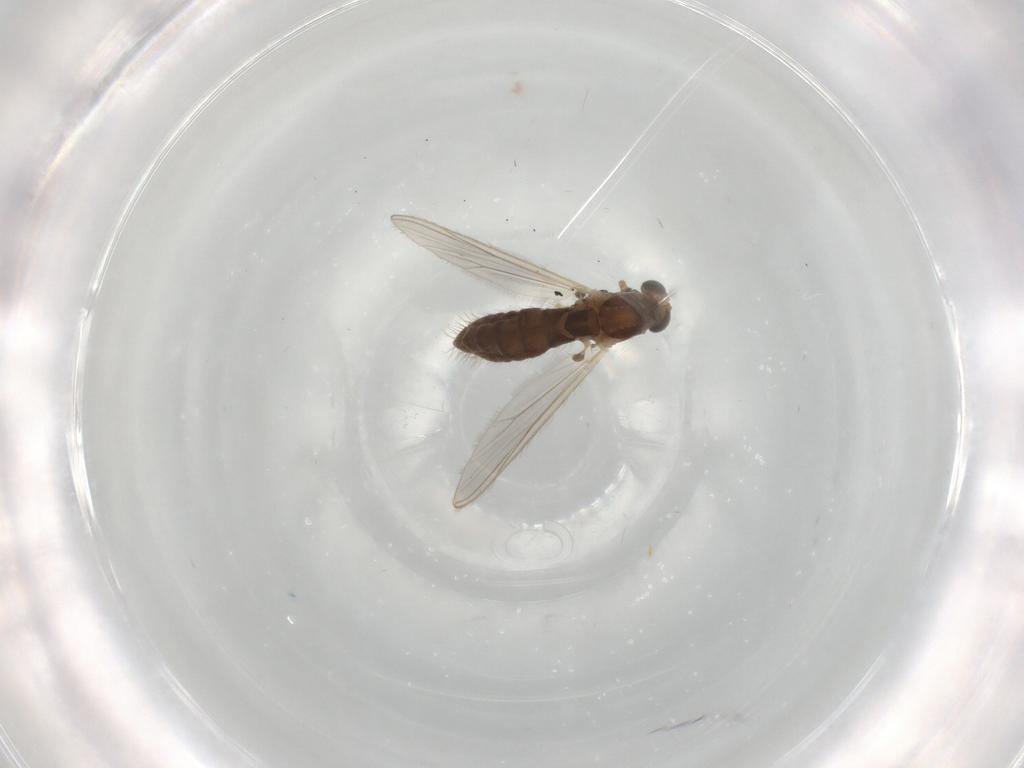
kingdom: Animalia
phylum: Arthropoda
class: Insecta
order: Diptera
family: Chironomidae
